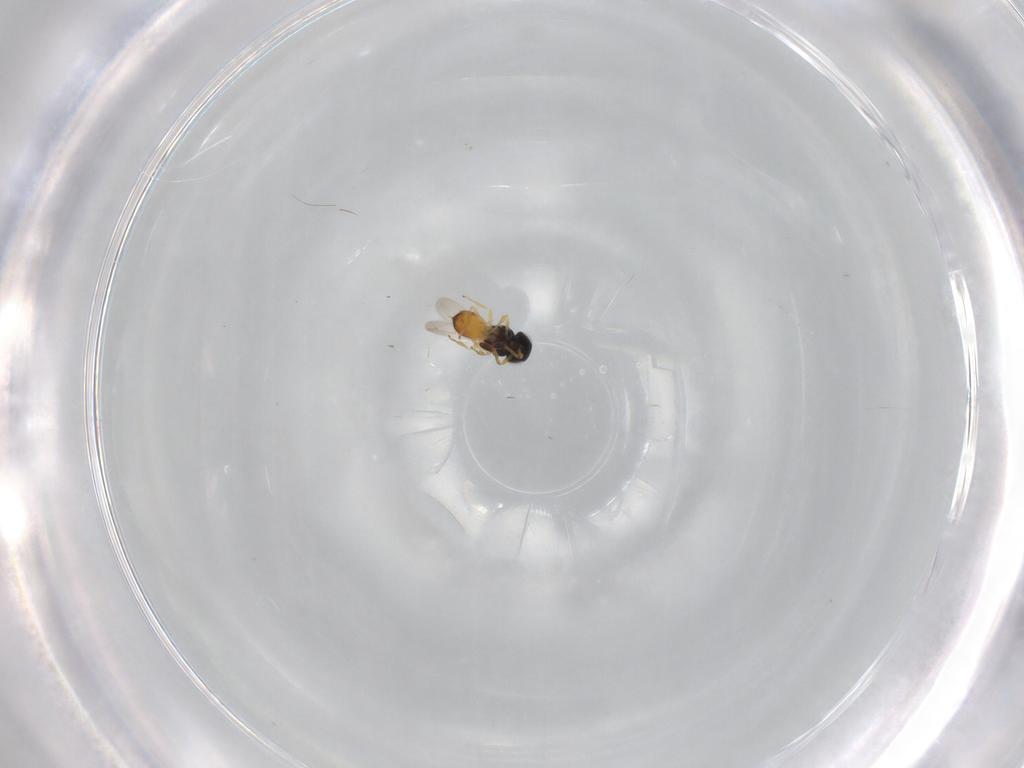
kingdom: Animalia
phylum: Arthropoda
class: Insecta
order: Hymenoptera
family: Scelionidae
